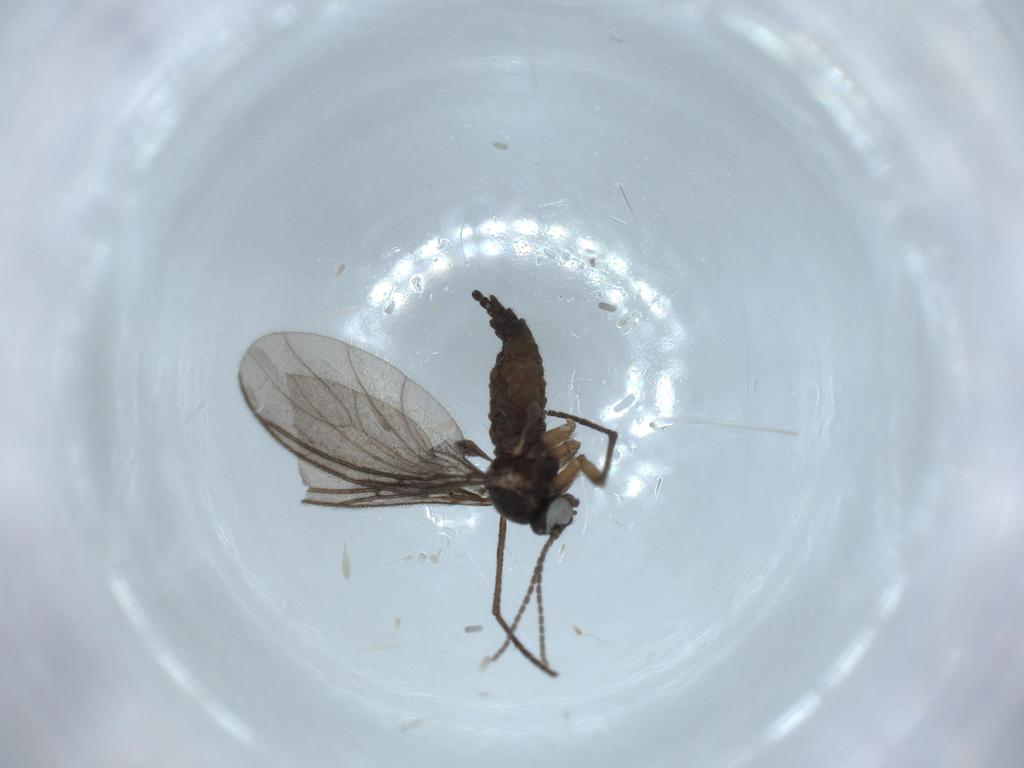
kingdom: Animalia
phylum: Arthropoda
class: Insecta
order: Diptera
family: Sciaridae
